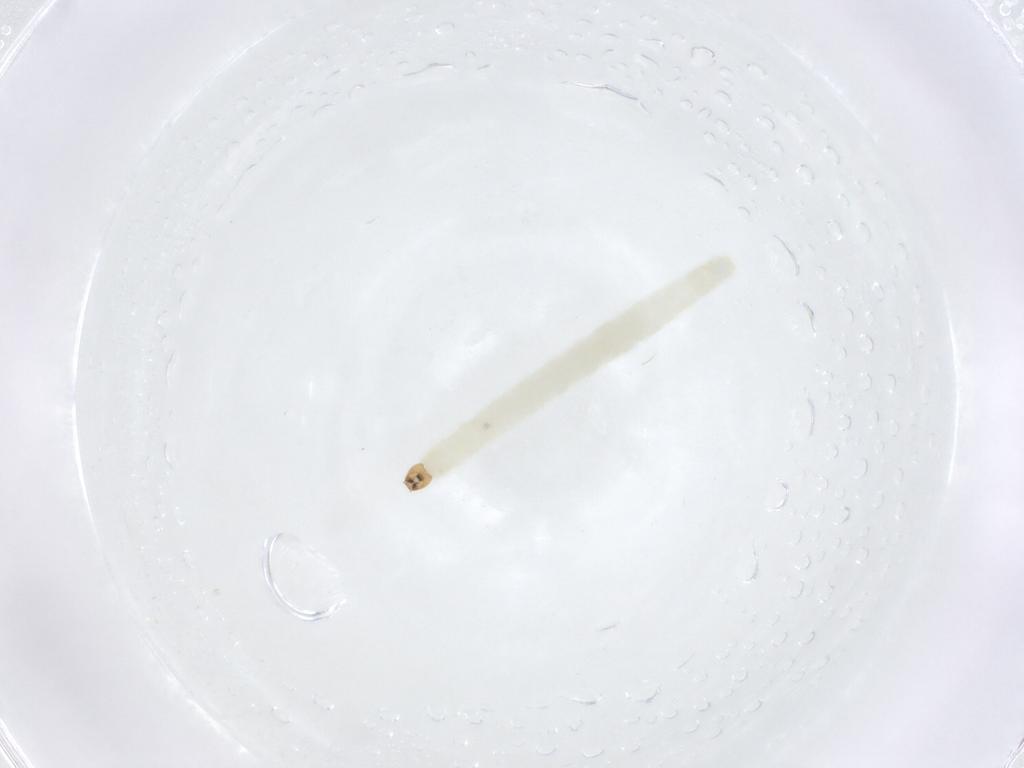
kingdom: Animalia
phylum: Arthropoda
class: Insecta
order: Diptera
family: Chironomidae
